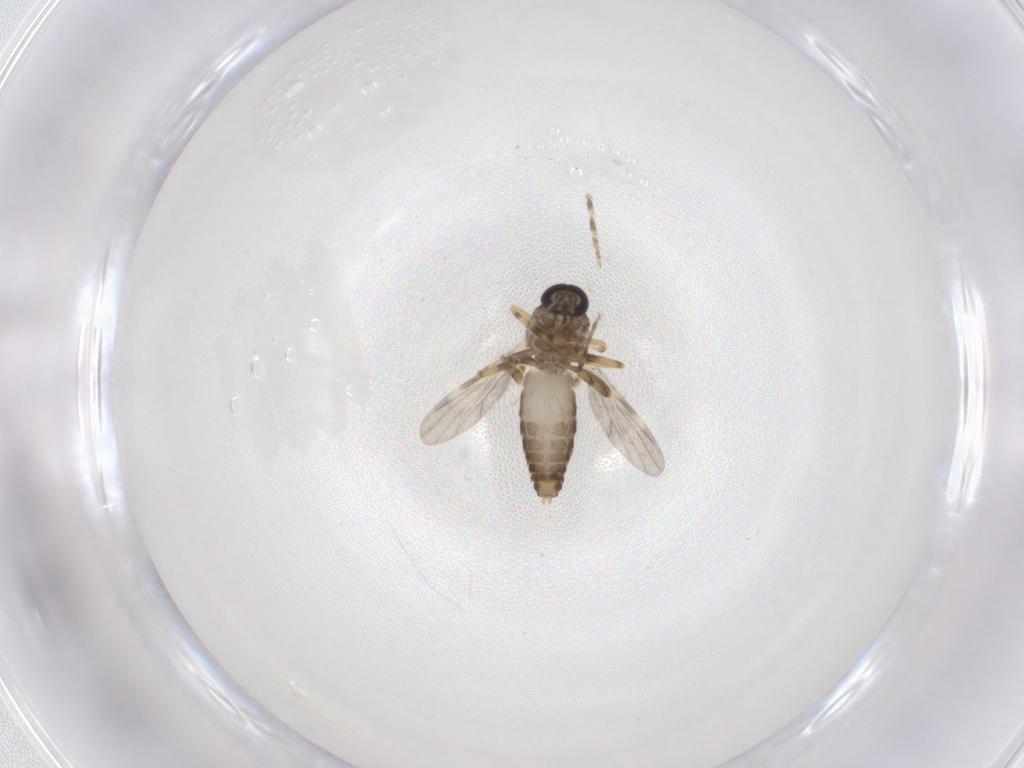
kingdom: Animalia
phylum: Arthropoda
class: Insecta
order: Diptera
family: Ceratopogonidae
